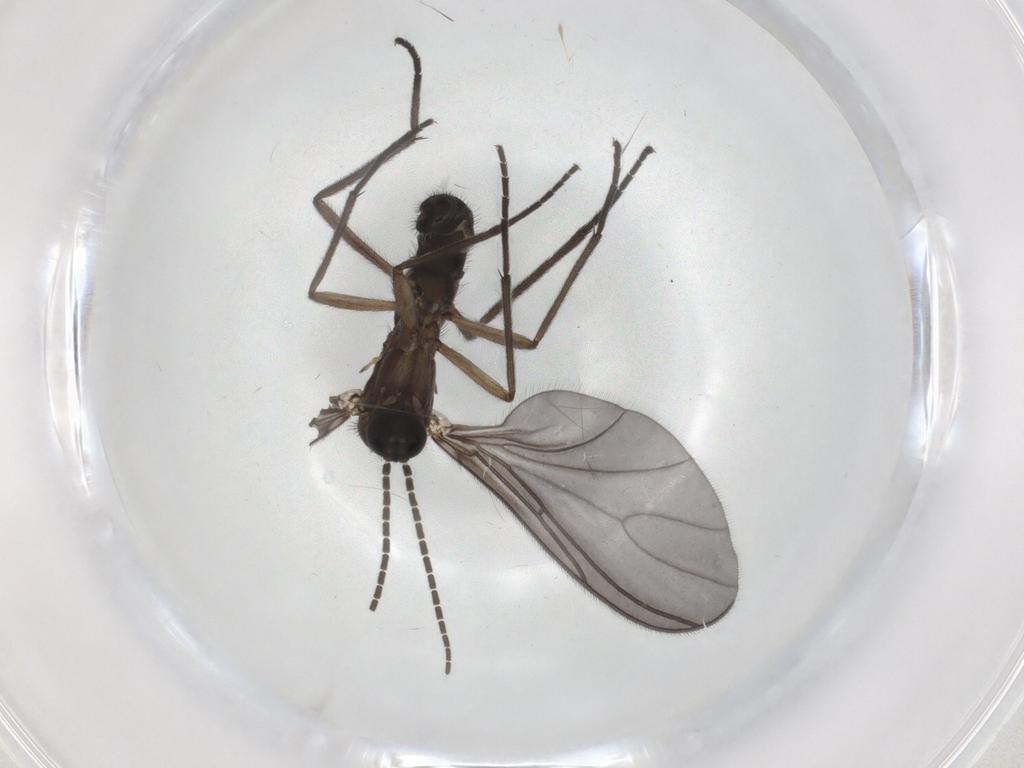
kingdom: Animalia
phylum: Arthropoda
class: Insecta
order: Diptera
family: Sciaridae
